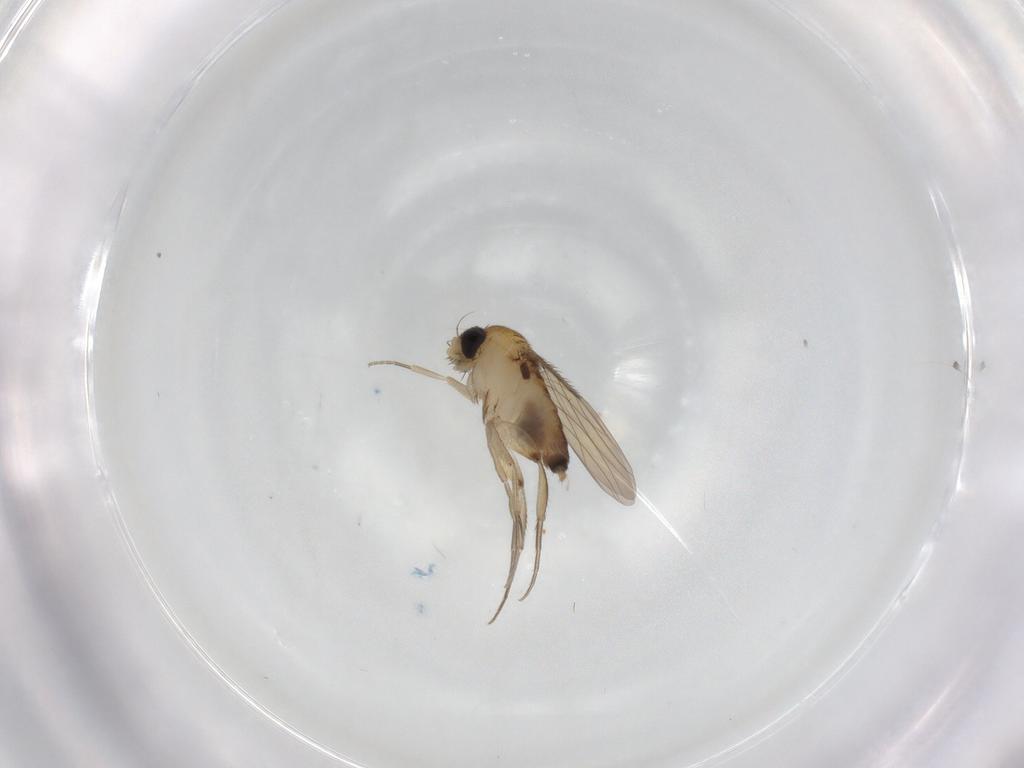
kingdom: Animalia
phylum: Arthropoda
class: Insecta
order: Diptera
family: Phoridae
